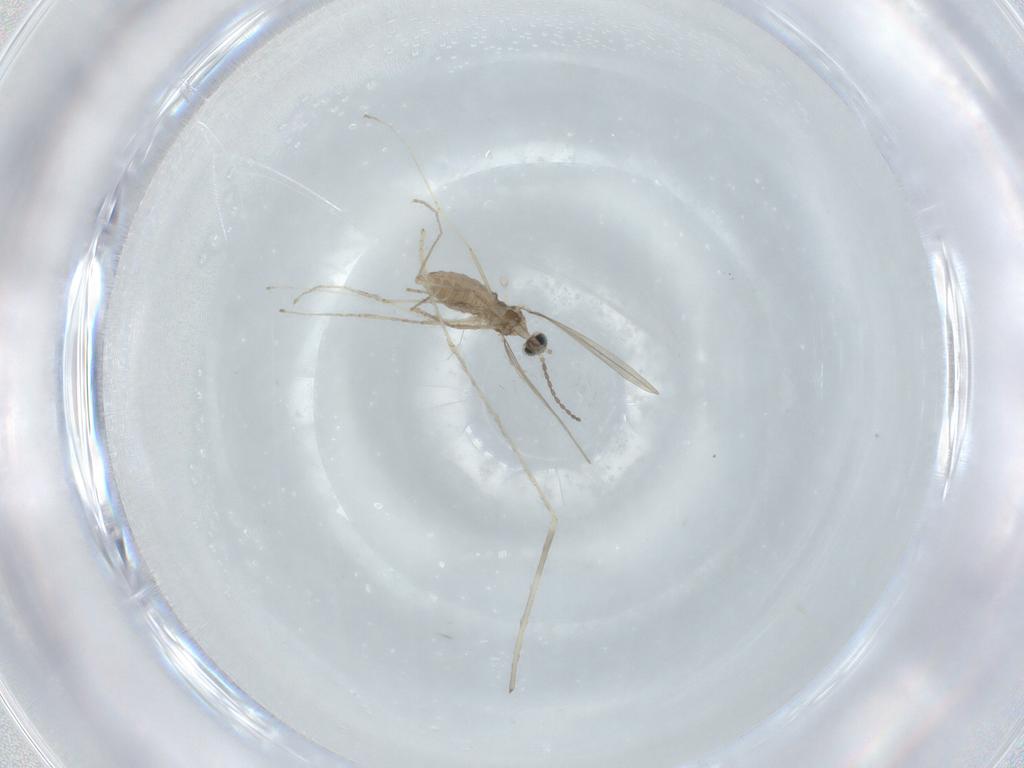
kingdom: Animalia
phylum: Arthropoda
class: Insecta
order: Diptera
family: Cecidomyiidae
